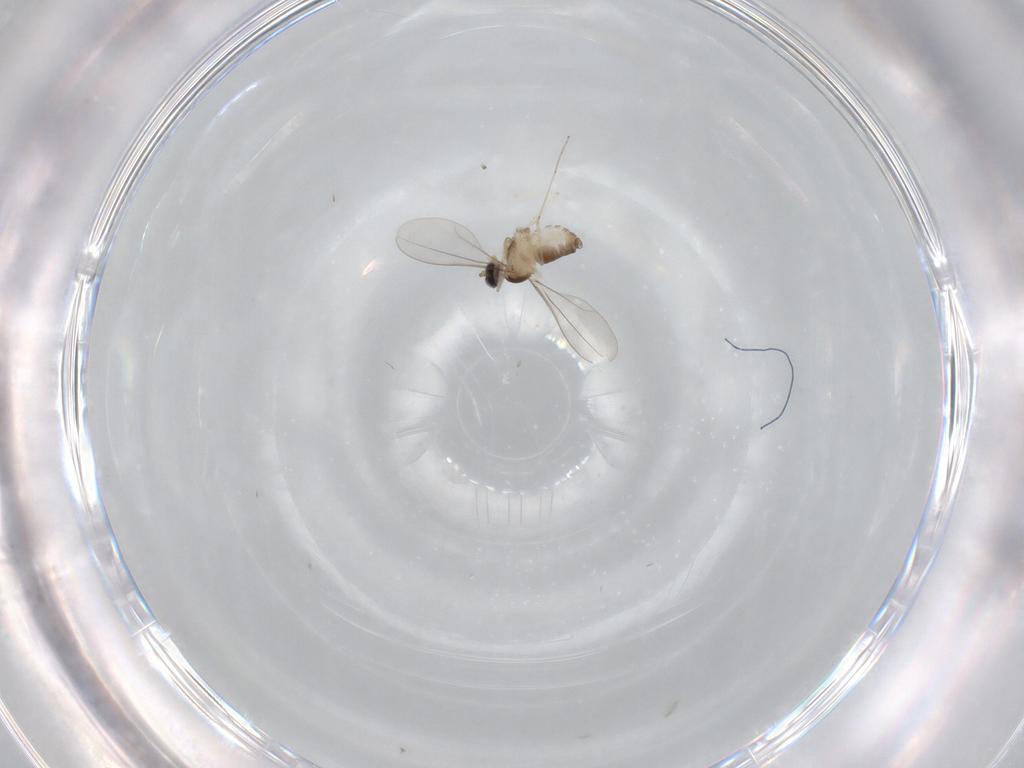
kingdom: Animalia
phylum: Arthropoda
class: Insecta
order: Diptera
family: Cecidomyiidae
